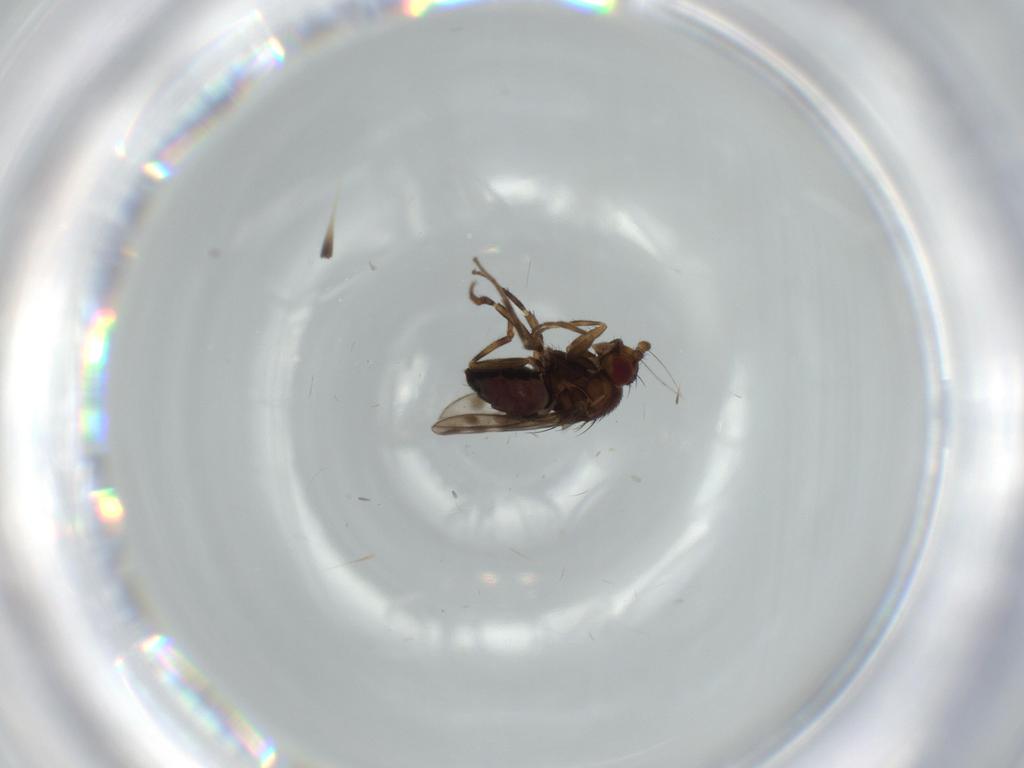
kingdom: Animalia
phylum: Arthropoda
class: Insecta
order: Diptera
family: Sphaeroceridae
